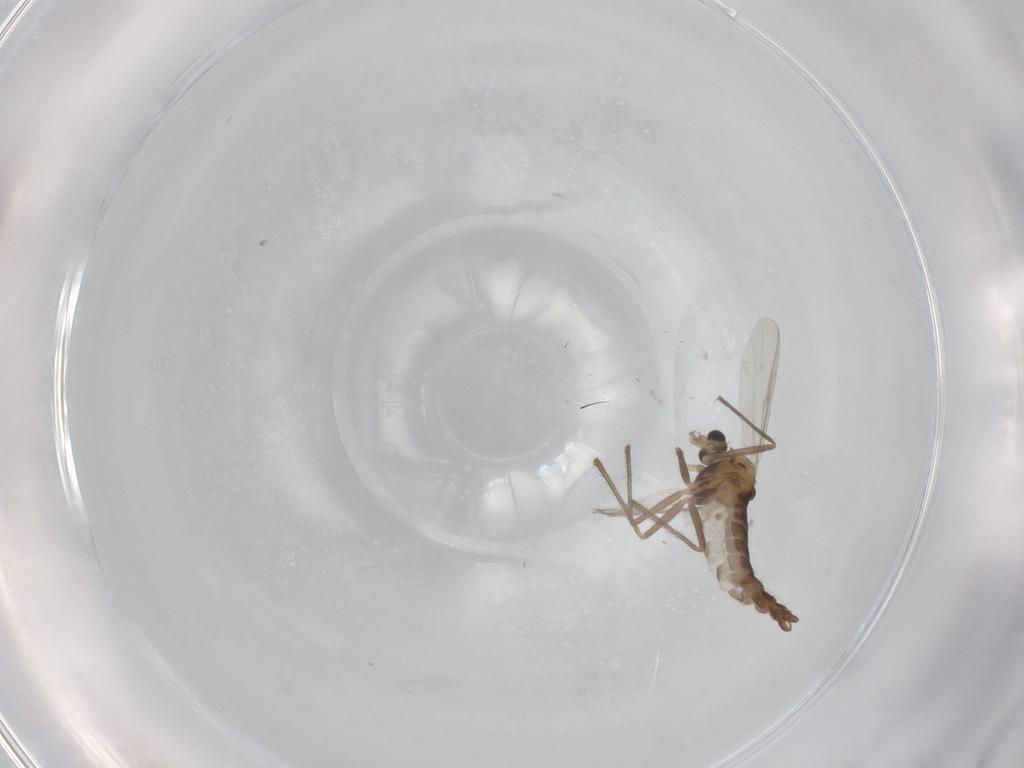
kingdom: Animalia
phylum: Arthropoda
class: Insecta
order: Diptera
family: Chironomidae
